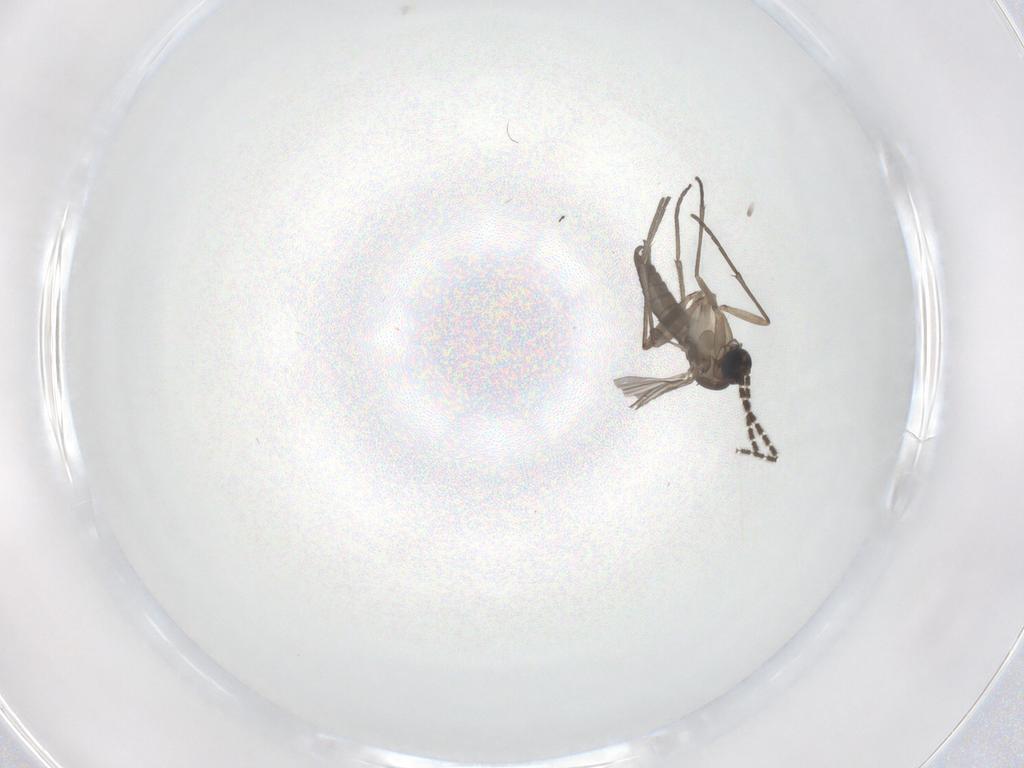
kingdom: Animalia
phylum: Arthropoda
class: Insecta
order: Diptera
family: Sciaridae
